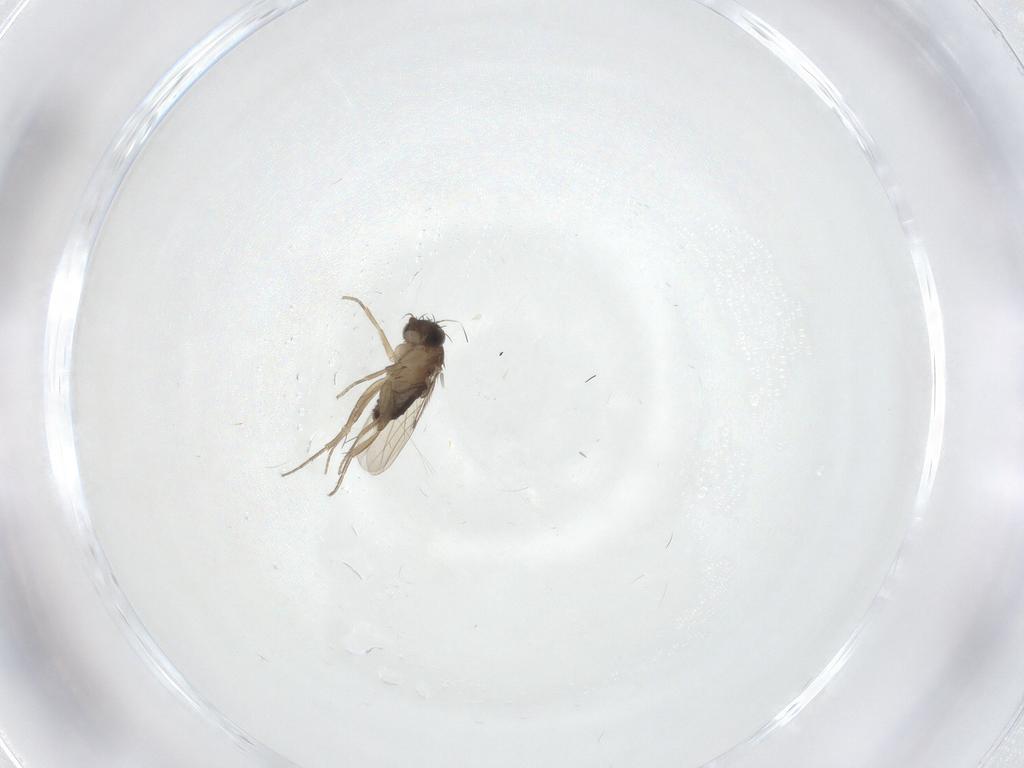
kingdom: Animalia
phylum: Arthropoda
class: Insecta
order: Diptera
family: Phoridae
